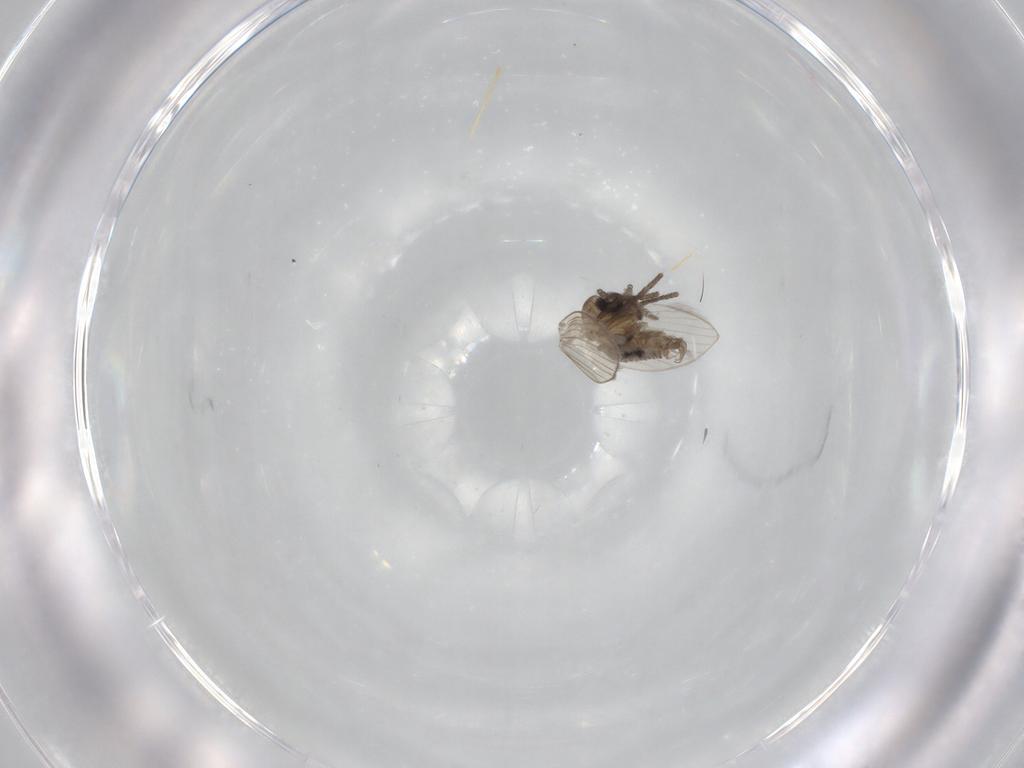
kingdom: Animalia
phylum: Arthropoda
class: Insecta
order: Diptera
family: Psychodidae
